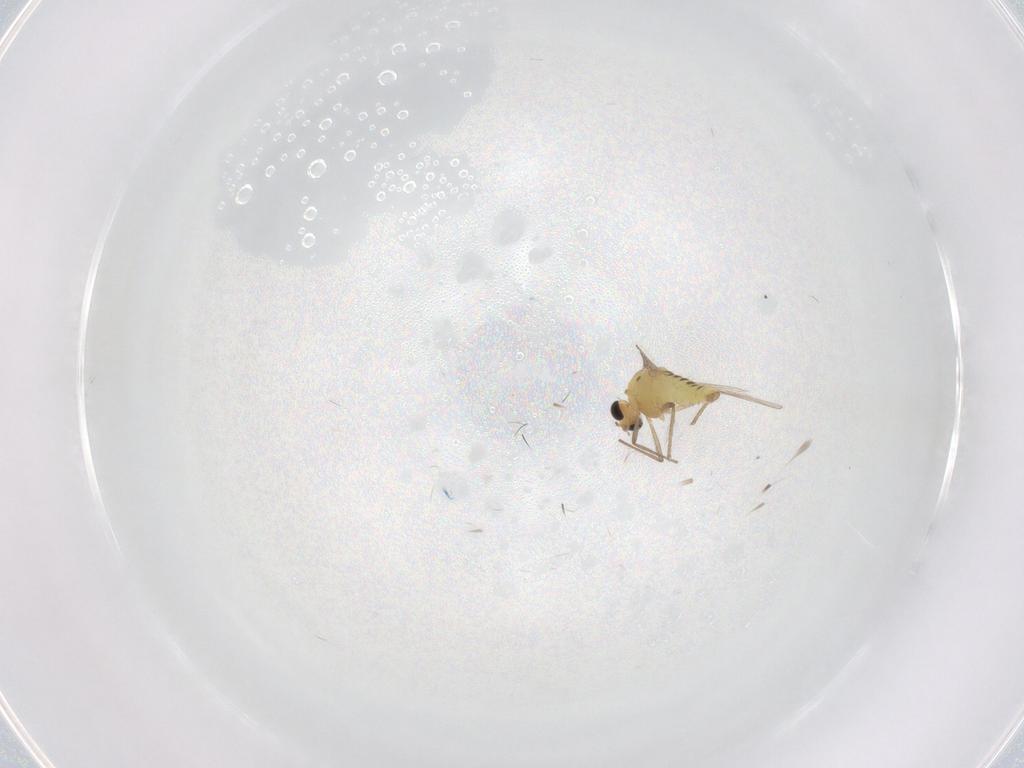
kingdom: Animalia
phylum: Arthropoda
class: Insecta
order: Diptera
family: Chironomidae
